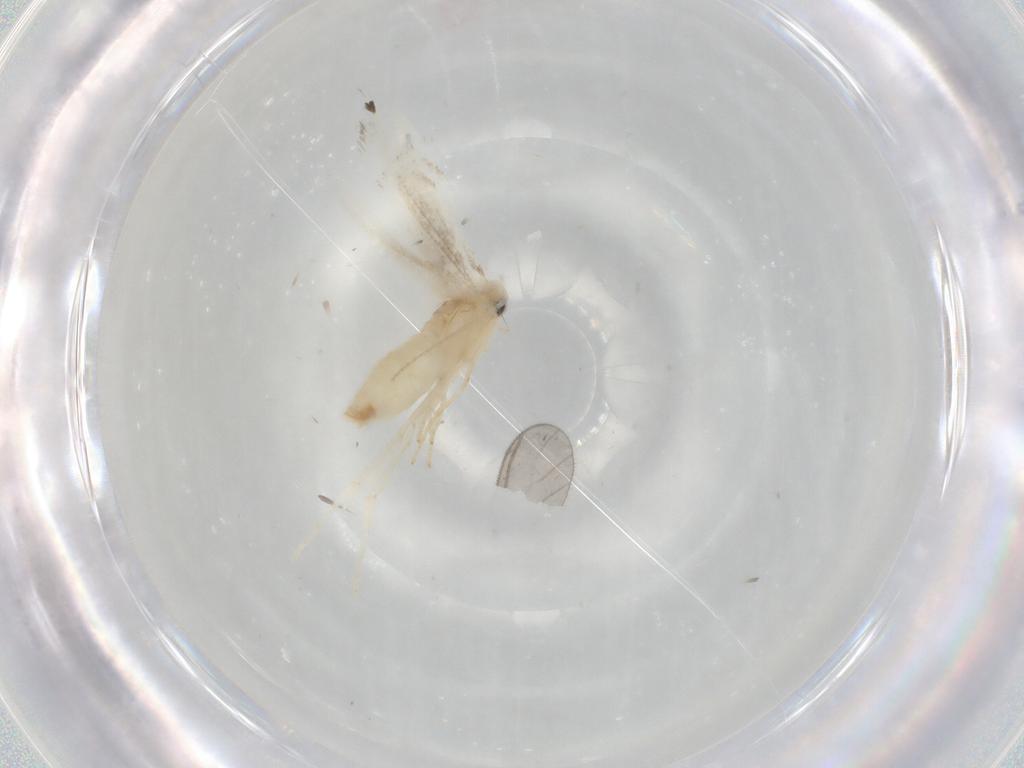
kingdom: Animalia
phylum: Arthropoda
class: Insecta
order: Lepidoptera
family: Gracillariidae
